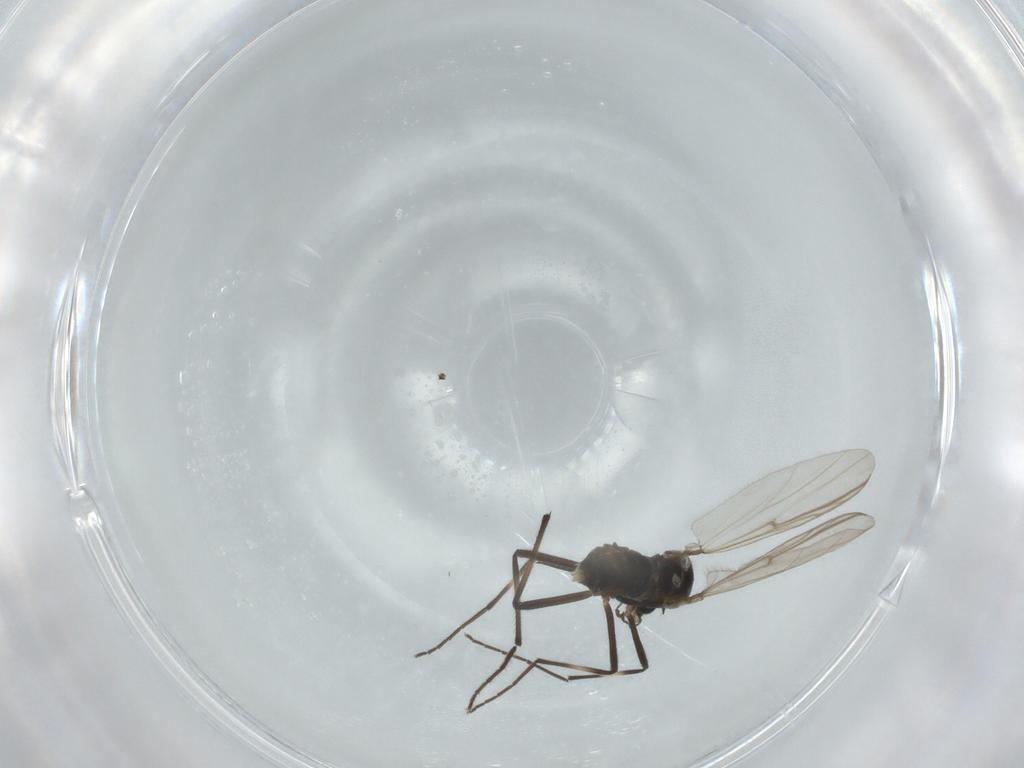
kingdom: Animalia
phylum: Arthropoda
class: Insecta
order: Diptera
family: Chironomidae
